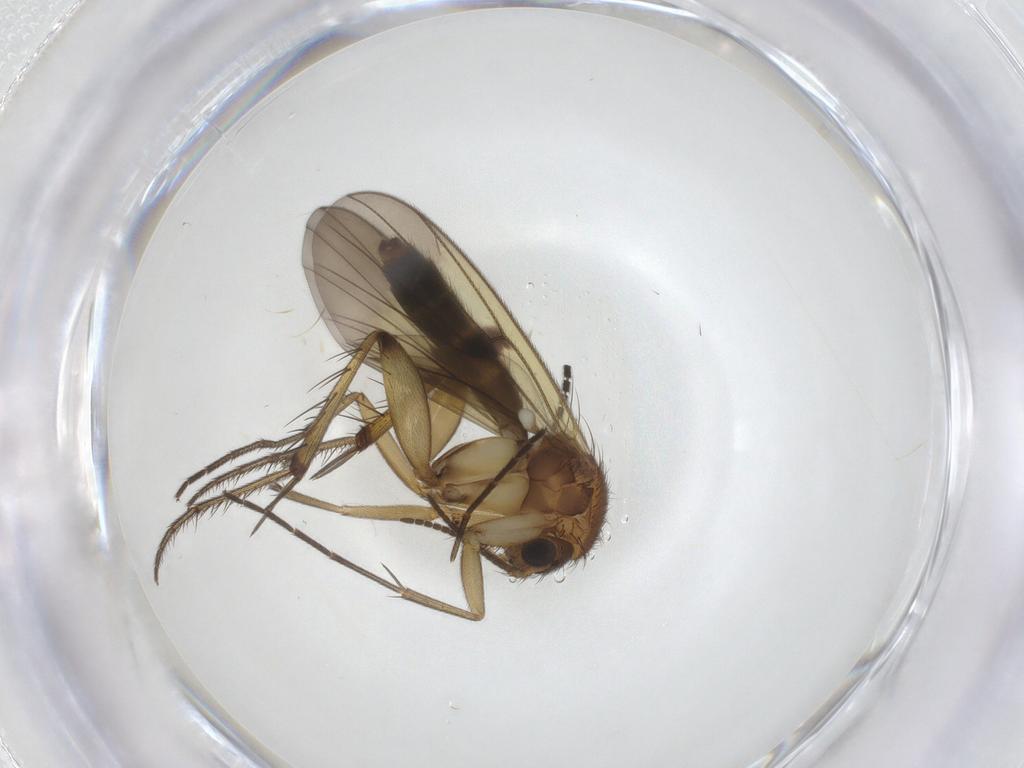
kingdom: Animalia
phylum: Arthropoda
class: Insecta
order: Diptera
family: Mycetophilidae
